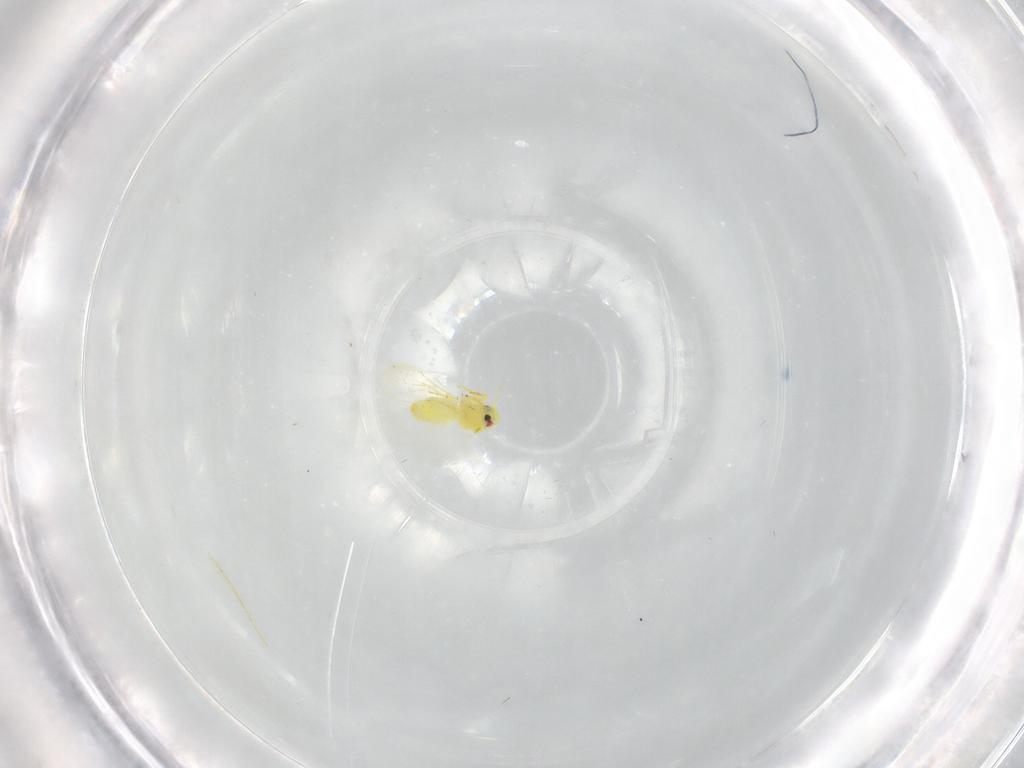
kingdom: Animalia
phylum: Arthropoda
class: Insecta
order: Hemiptera
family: Aleyrodidae
